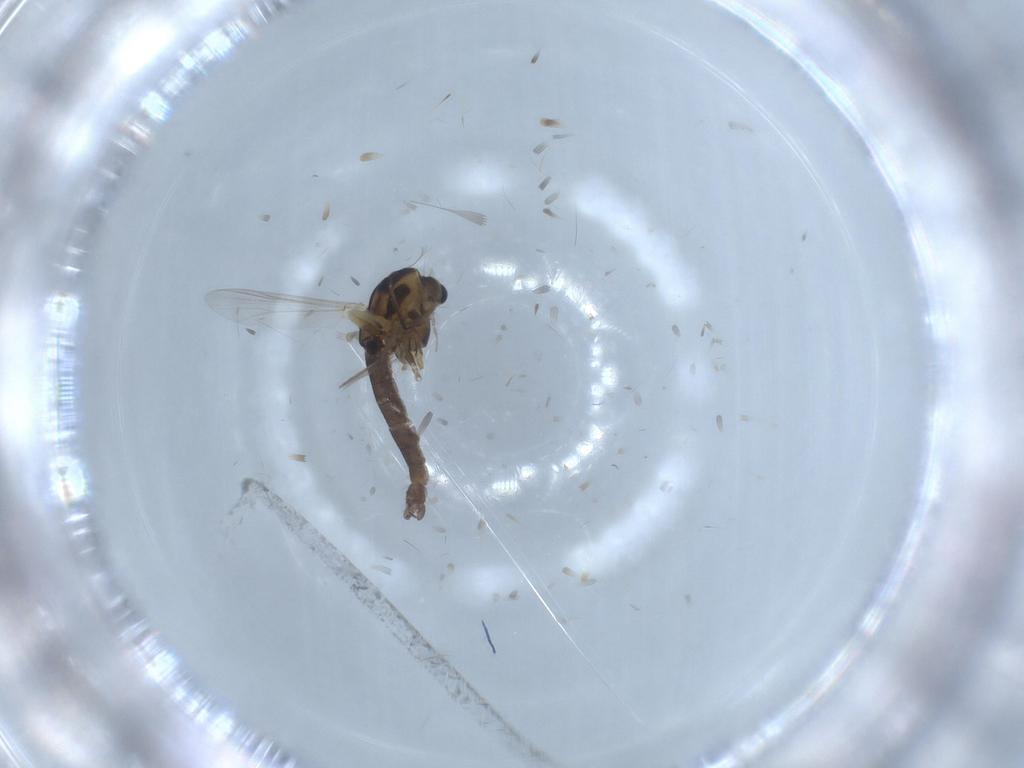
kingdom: Animalia
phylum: Arthropoda
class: Insecta
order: Diptera
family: Chironomidae
